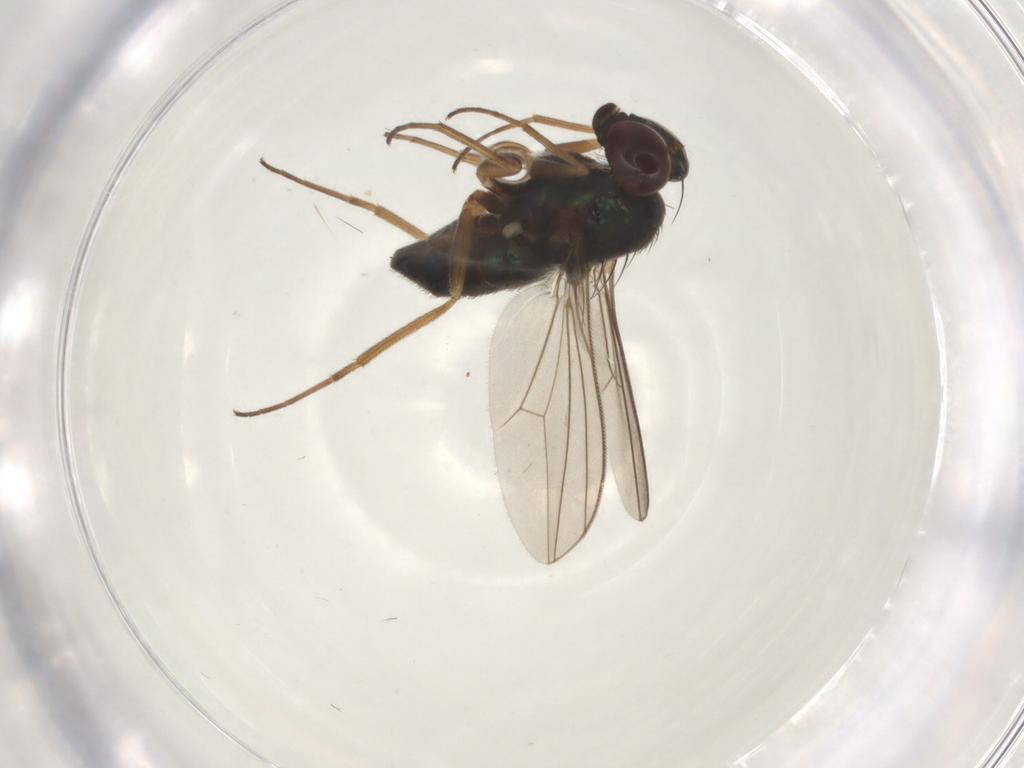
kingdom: Animalia
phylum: Arthropoda
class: Insecta
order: Diptera
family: Dolichopodidae
